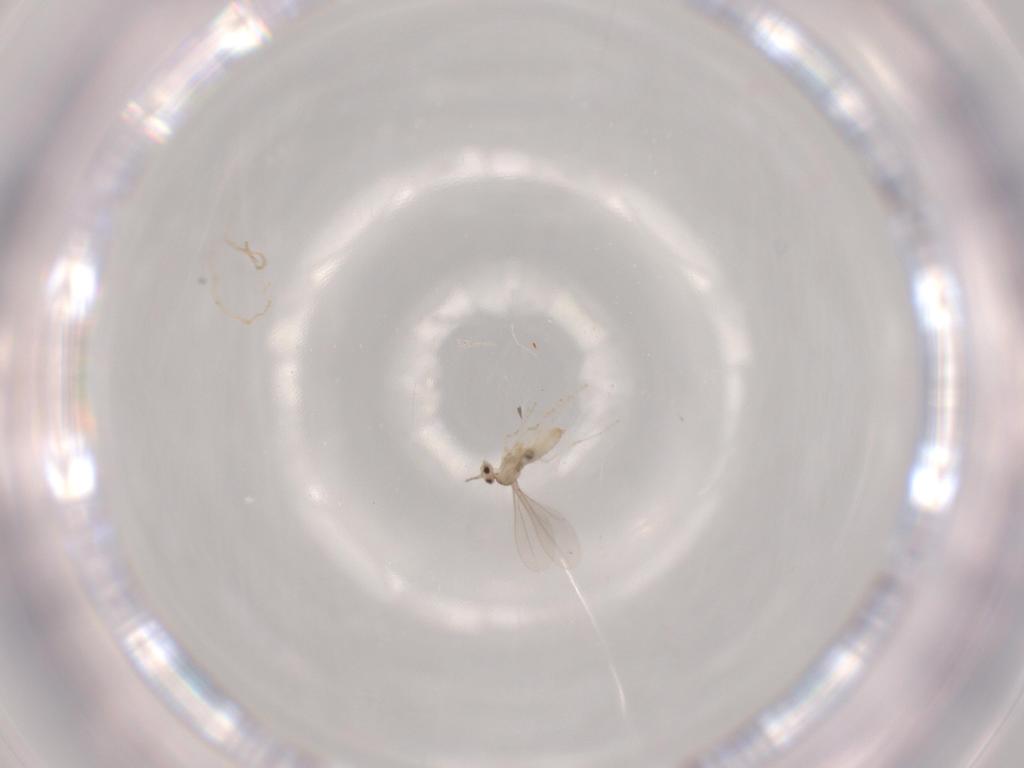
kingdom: Animalia
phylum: Arthropoda
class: Insecta
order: Diptera
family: Cecidomyiidae
